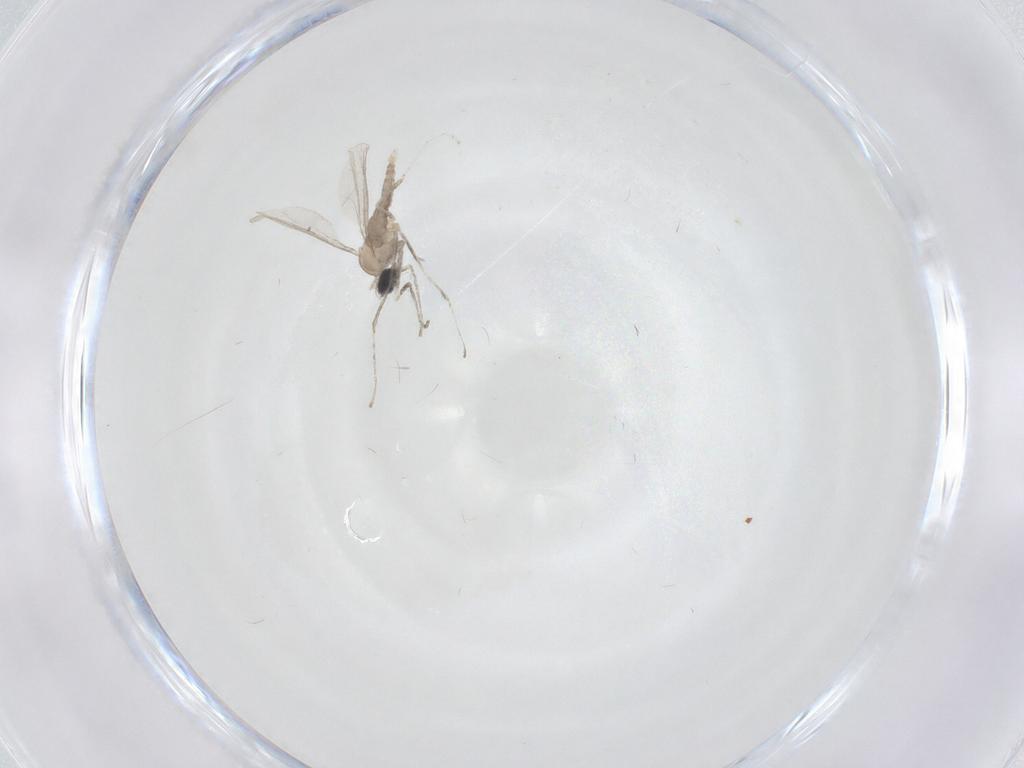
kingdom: Animalia
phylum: Arthropoda
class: Insecta
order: Diptera
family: Cecidomyiidae
